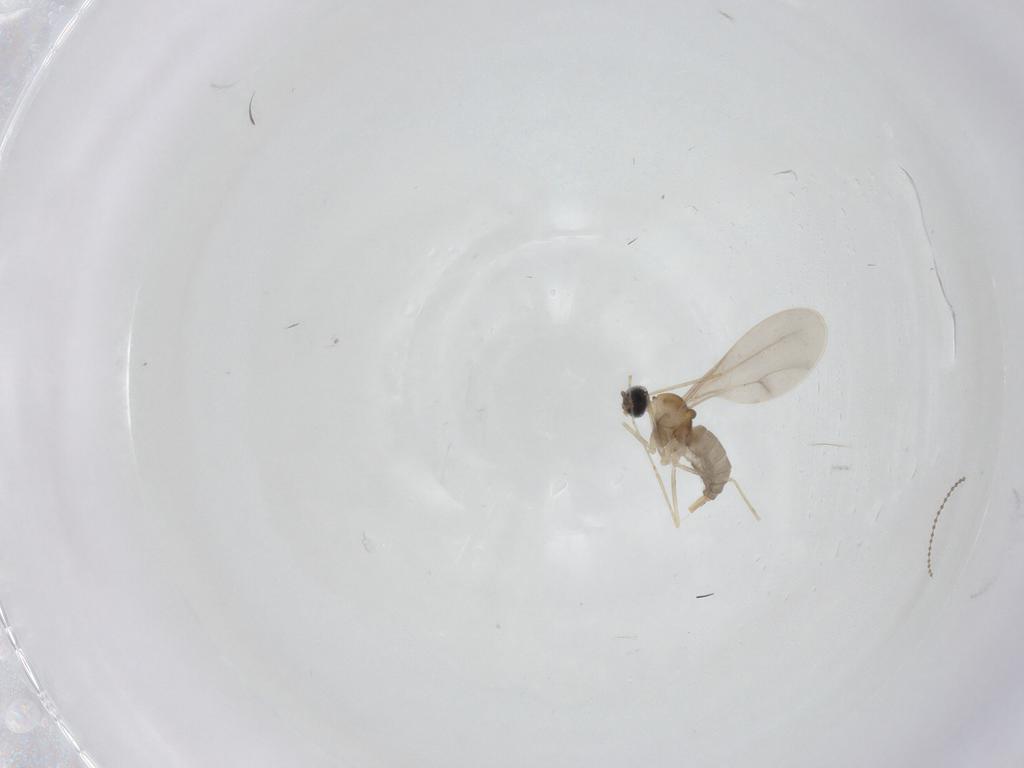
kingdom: Animalia
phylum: Arthropoda
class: Insecta
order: Diptera
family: Cecidomyiidae
